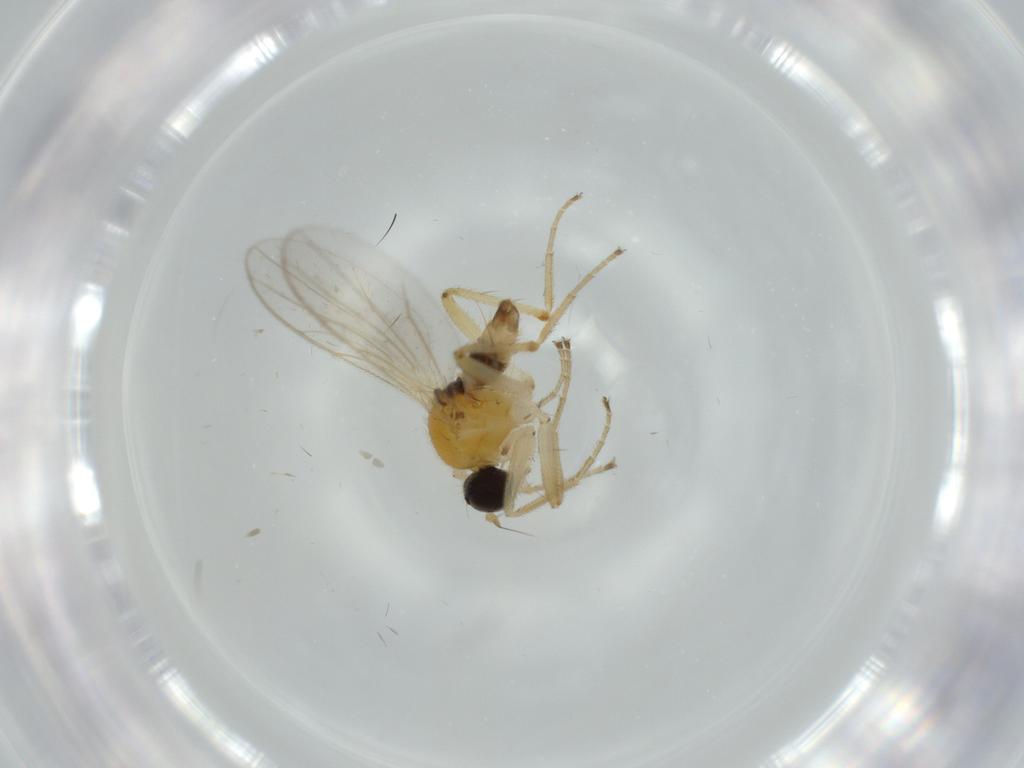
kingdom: Animalia
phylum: Arthropoda
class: Insecta
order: Diptera
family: Hybotidae
